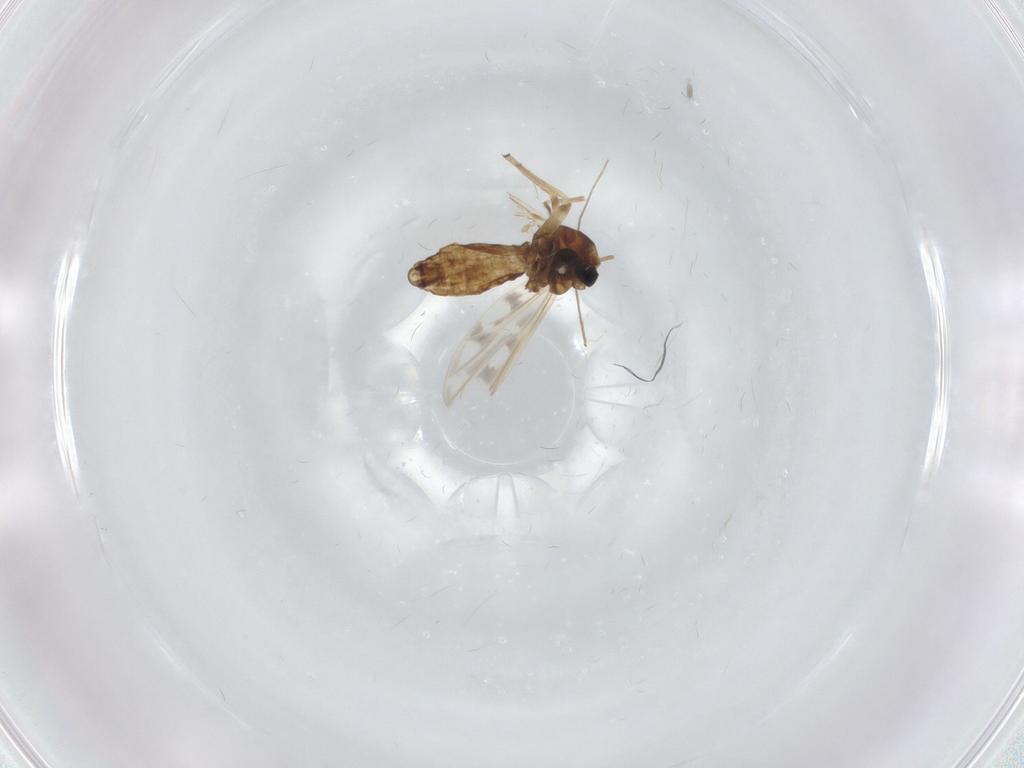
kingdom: Animalia
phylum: Arthropoda
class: Insecta
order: Diptera
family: Chironomidae
